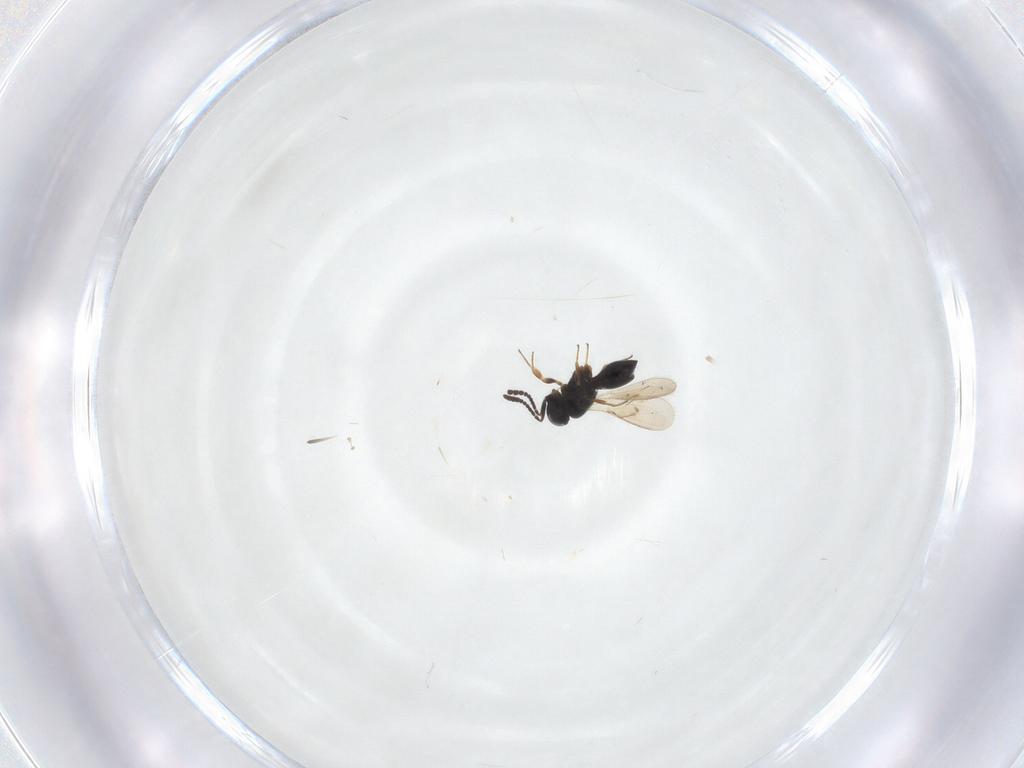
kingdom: Animalia
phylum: Arthropoda
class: Insecta
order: Hymenoptera
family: Scelionidae
